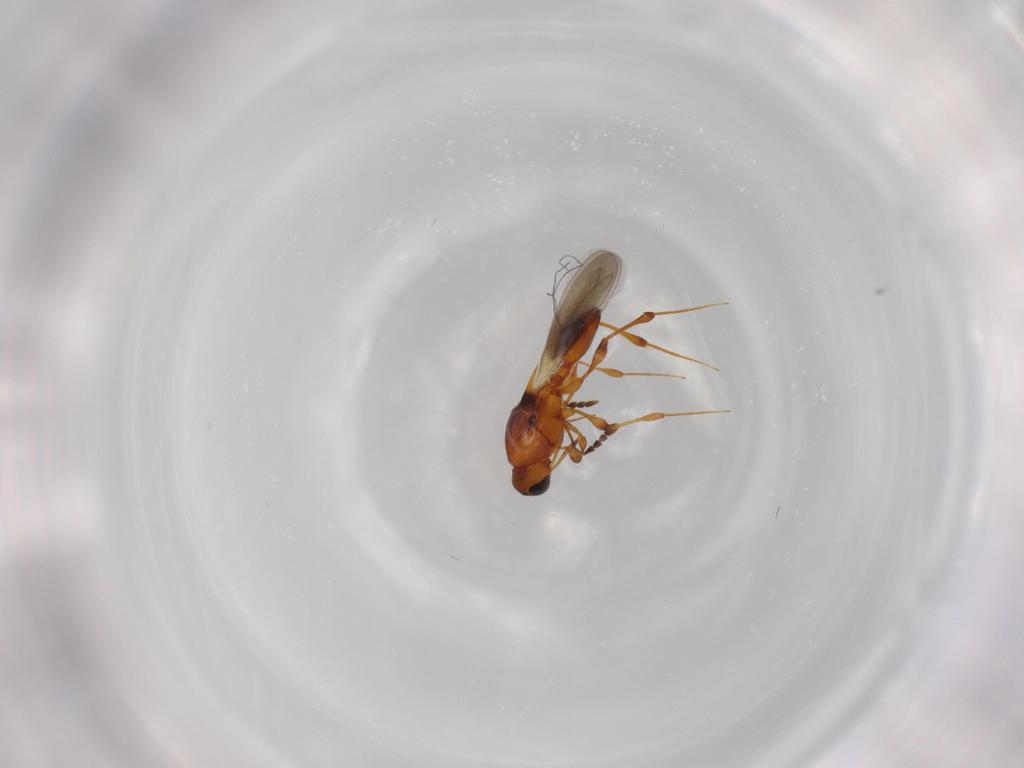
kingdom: Animalia
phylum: Arthropoda
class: Insecta
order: Hymenoptera
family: Platygastridae
